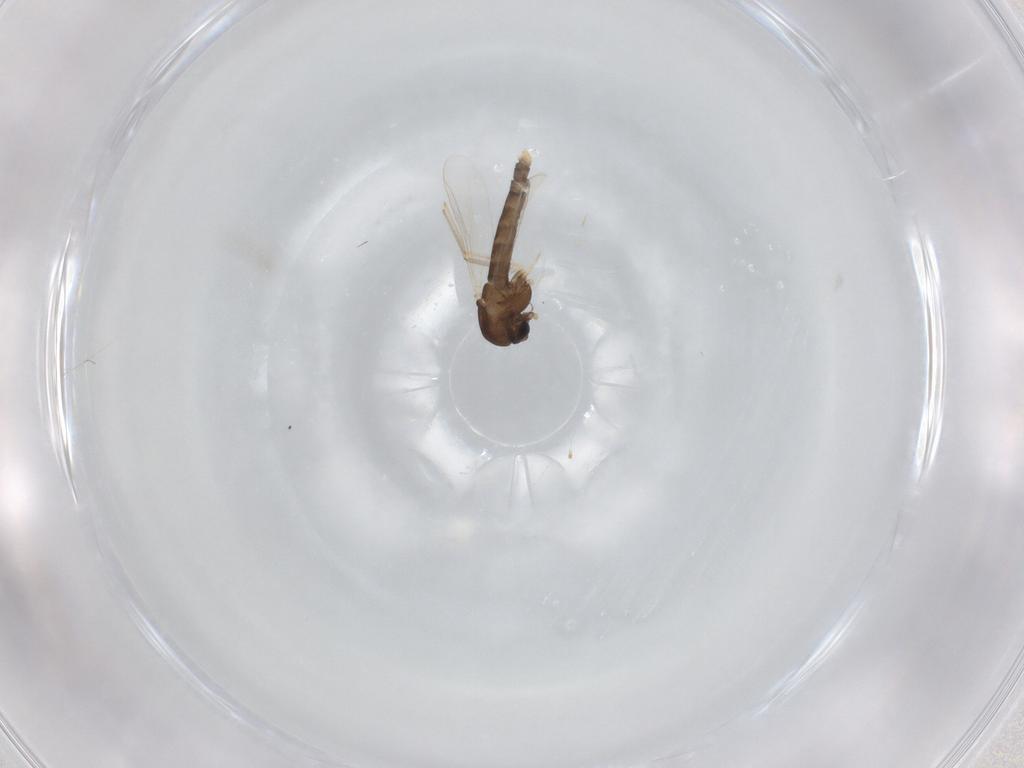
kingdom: Animalia
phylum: Arthropoda
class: Insecta
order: Diptera
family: Chironomidae
